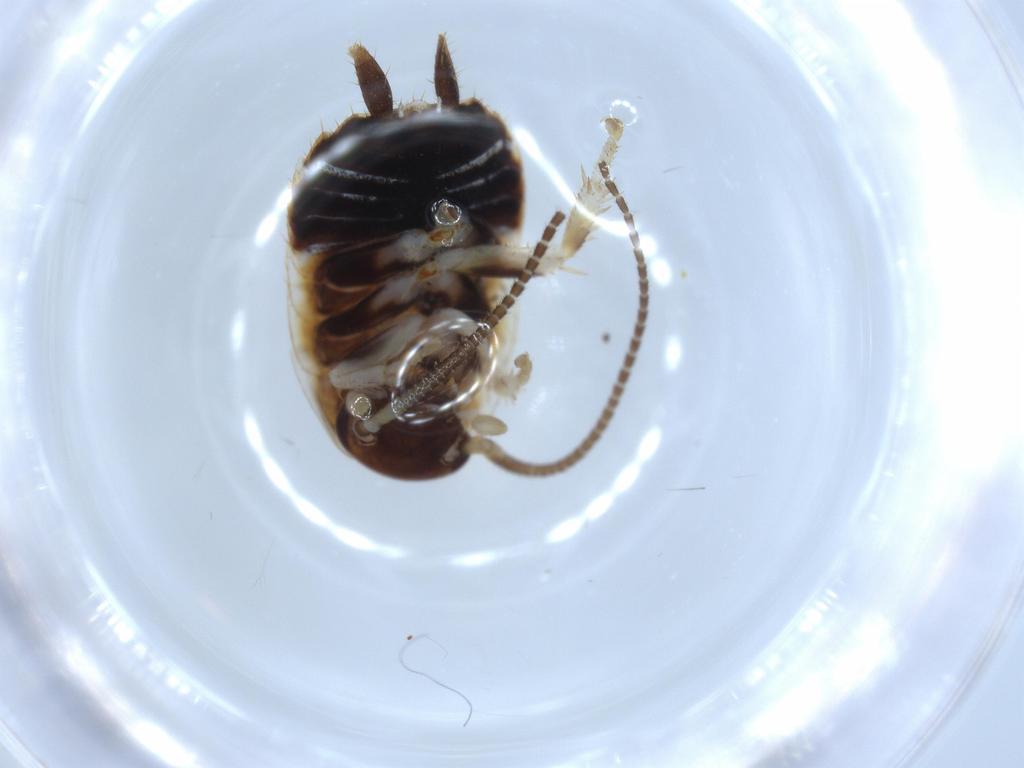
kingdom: Animalia
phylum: Arthropoda
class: Insecta
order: Blattodea
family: Ectobiidae
